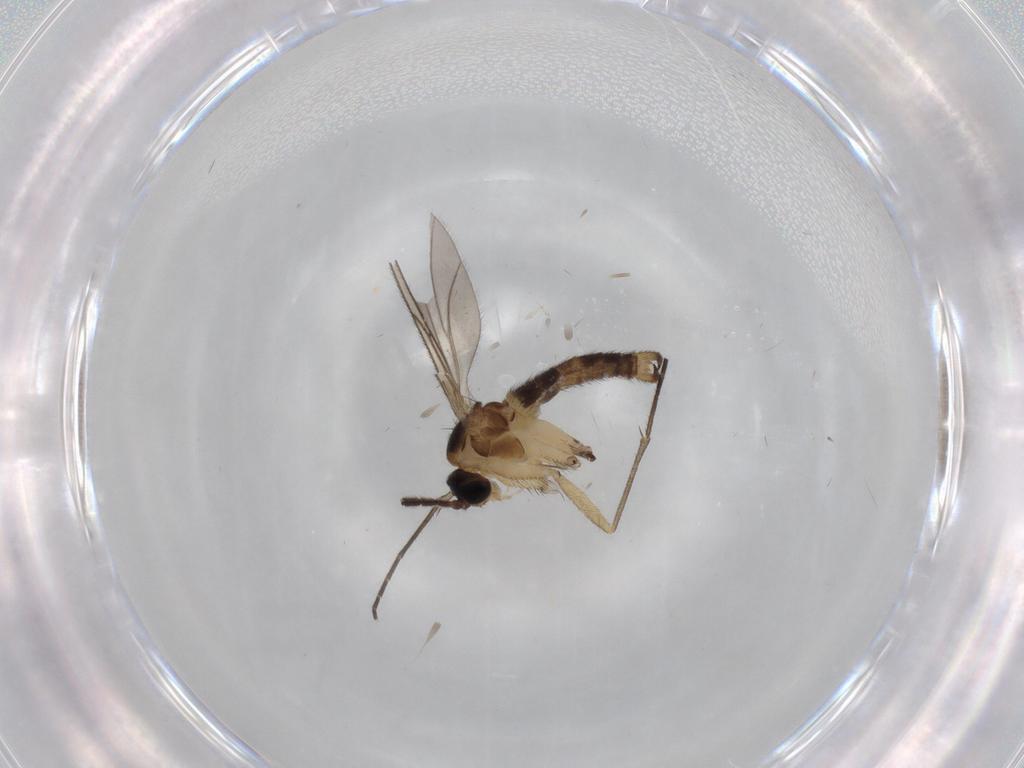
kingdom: Animalia
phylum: Arthropoda
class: Insecta
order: Diptera
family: Sciaridae
